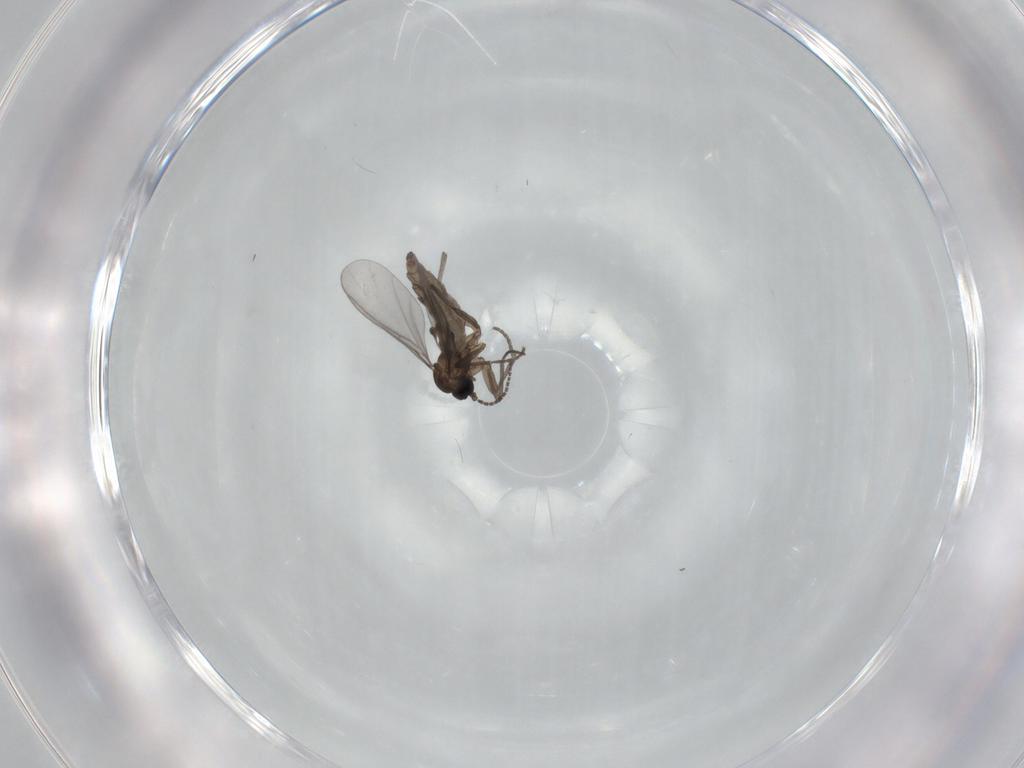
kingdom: Animalia
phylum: Arthropoda
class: Insecta
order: Diptera
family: Sciaridae
